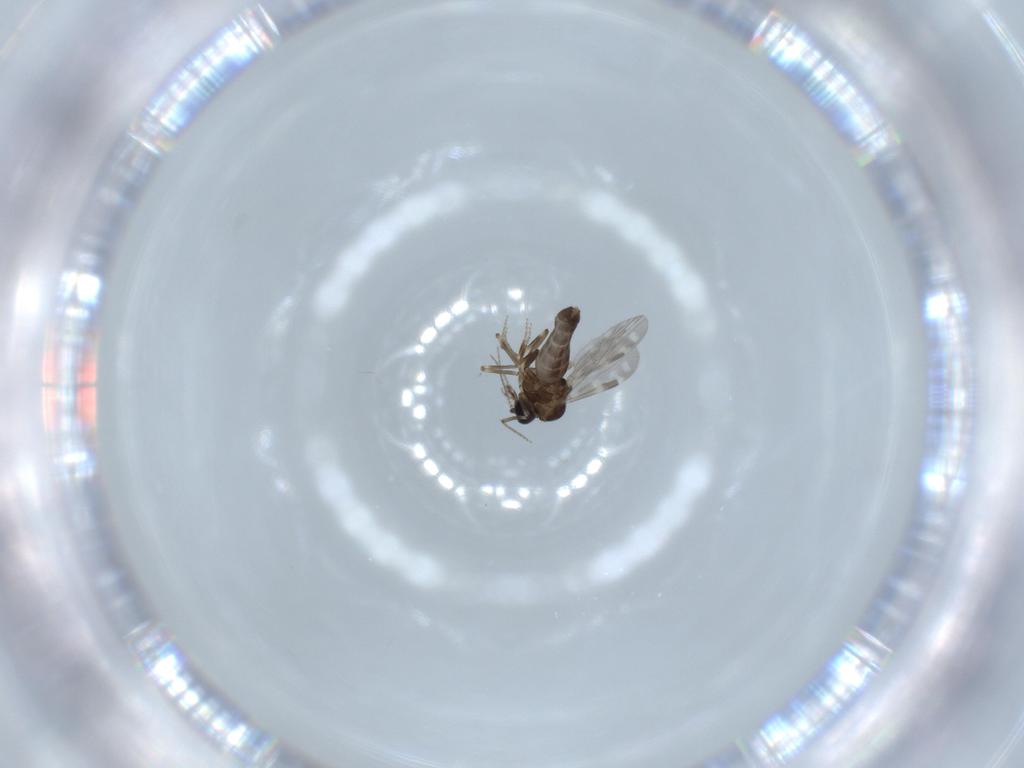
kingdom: Animalia
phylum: Arthropoda
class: Insecta
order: Diptera
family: Ceratopogonidae
